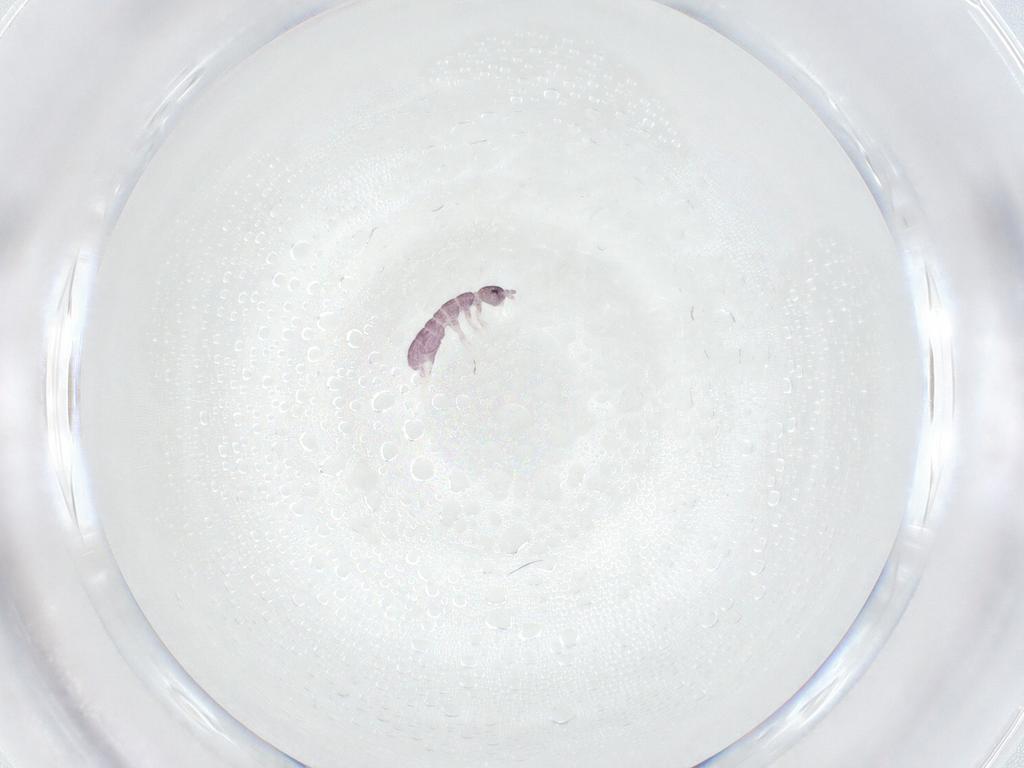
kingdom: Animalia
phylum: Arthropoda
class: Collembola
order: Entomobryomorpha
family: Isotomidae
